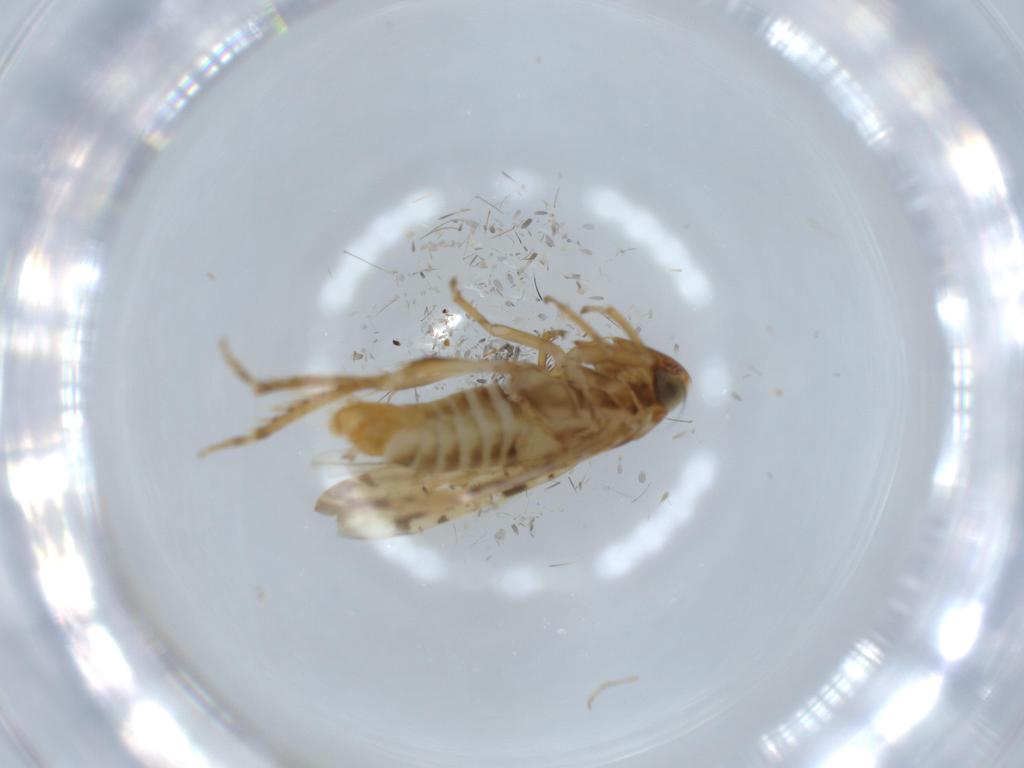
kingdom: Animalia
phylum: Arthropoda
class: Insecta
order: Hemiptera
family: Cicadellidae
